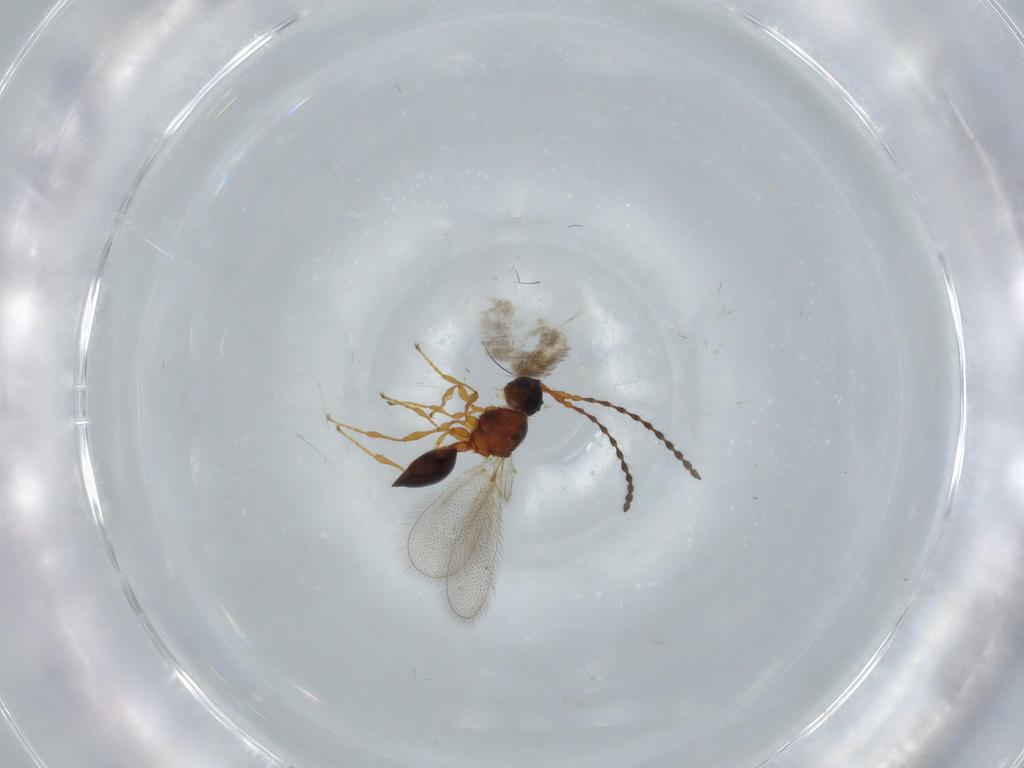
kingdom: Animalia
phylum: Arthropoda
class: Insecta
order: Hymenoptera
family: Diapriidae
